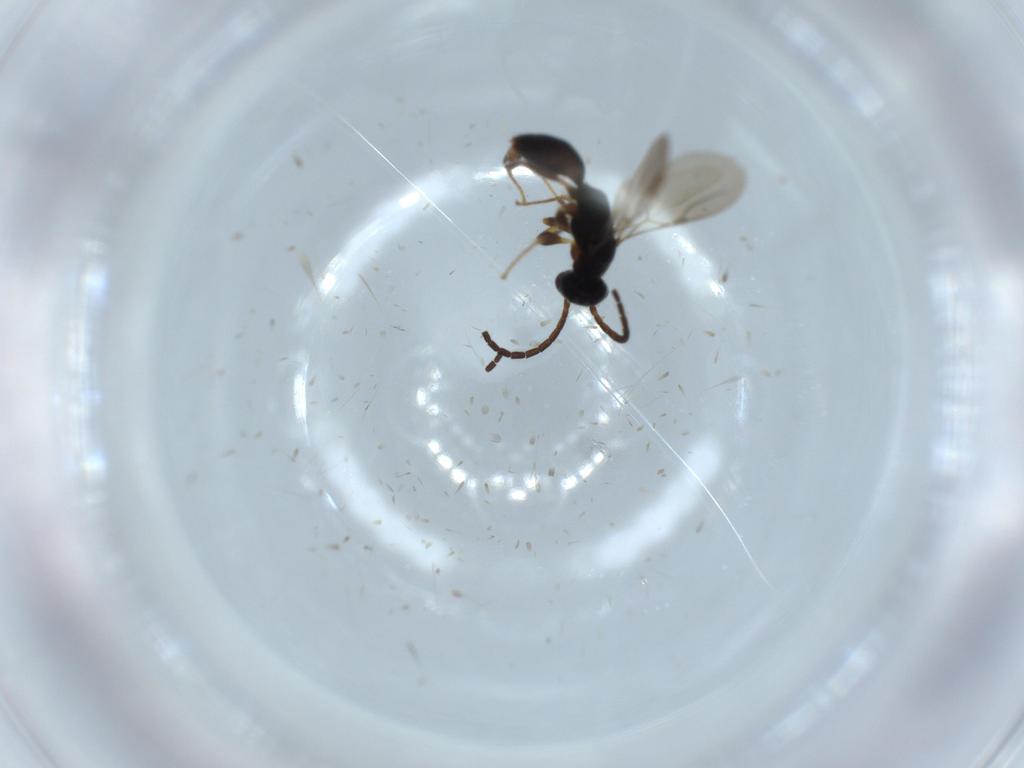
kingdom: Animalia
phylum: Arthropoda
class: Insecta
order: Hymenoptera
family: Bethylidae
